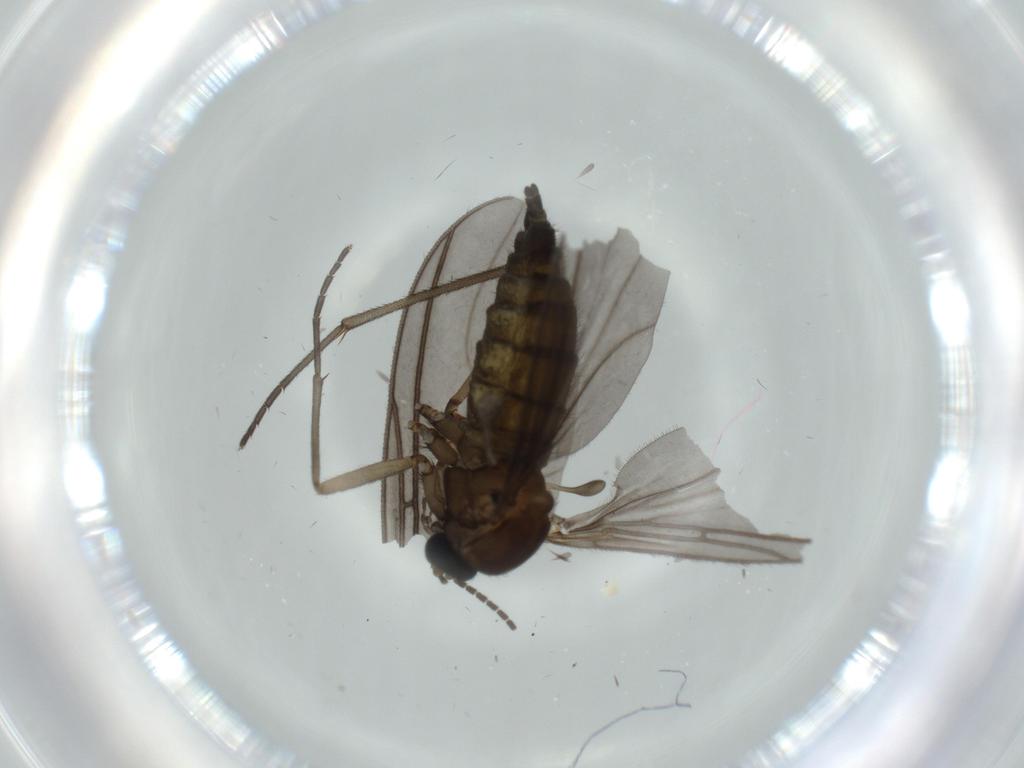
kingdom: Animalia
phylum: Arthropoda
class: Insecta
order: Diptera
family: Sciaridae
